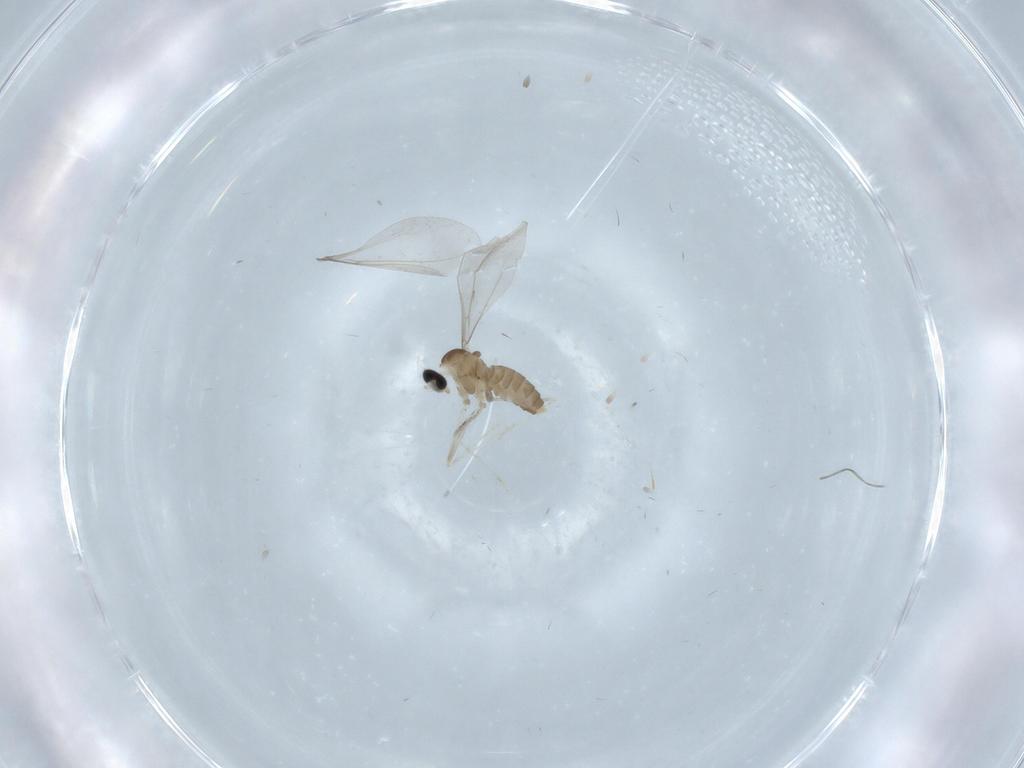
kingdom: Animalia
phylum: Arthropoda
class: Insecta
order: Diptera
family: Cecidomyiidae
